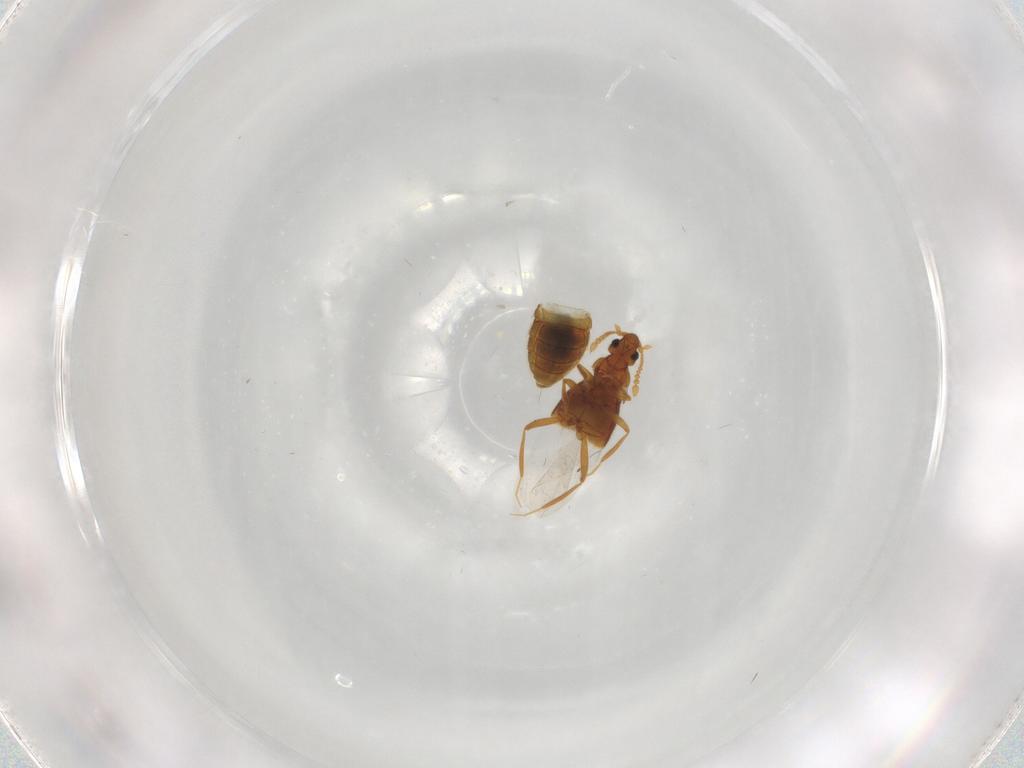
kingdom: Animalia
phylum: Arthropoda
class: Insecta
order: Coleoptera
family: Staphylinidae
